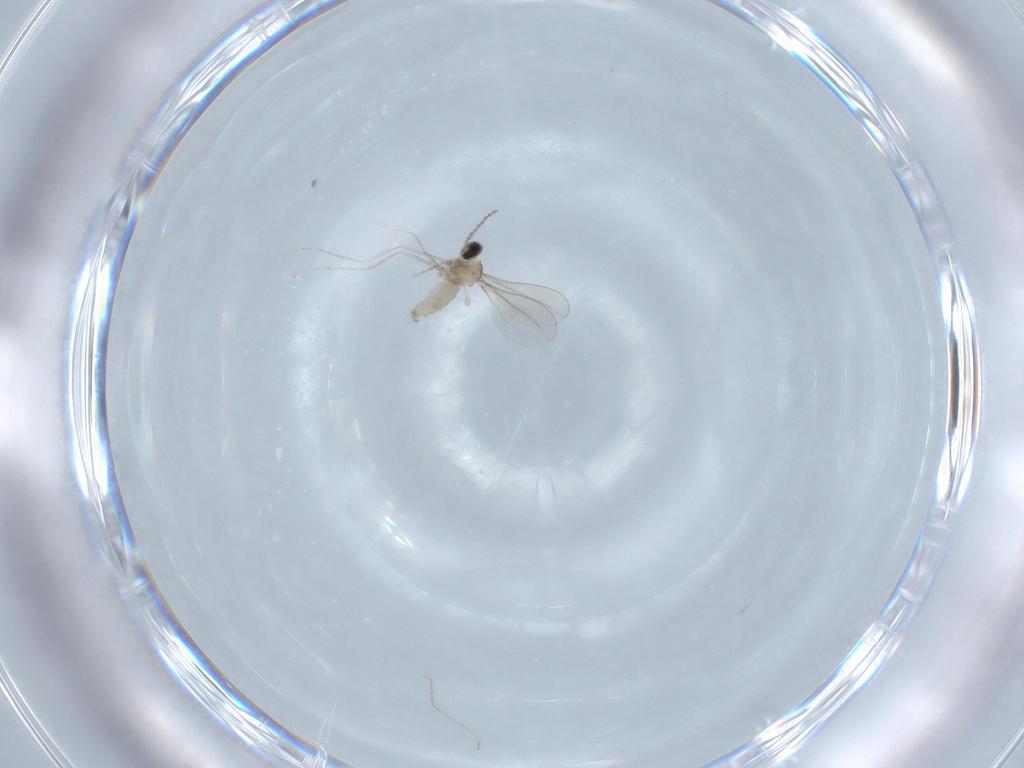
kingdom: Animalia
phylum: Arthropoda
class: Insecta
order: Diptera
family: Cecidomyiidae
